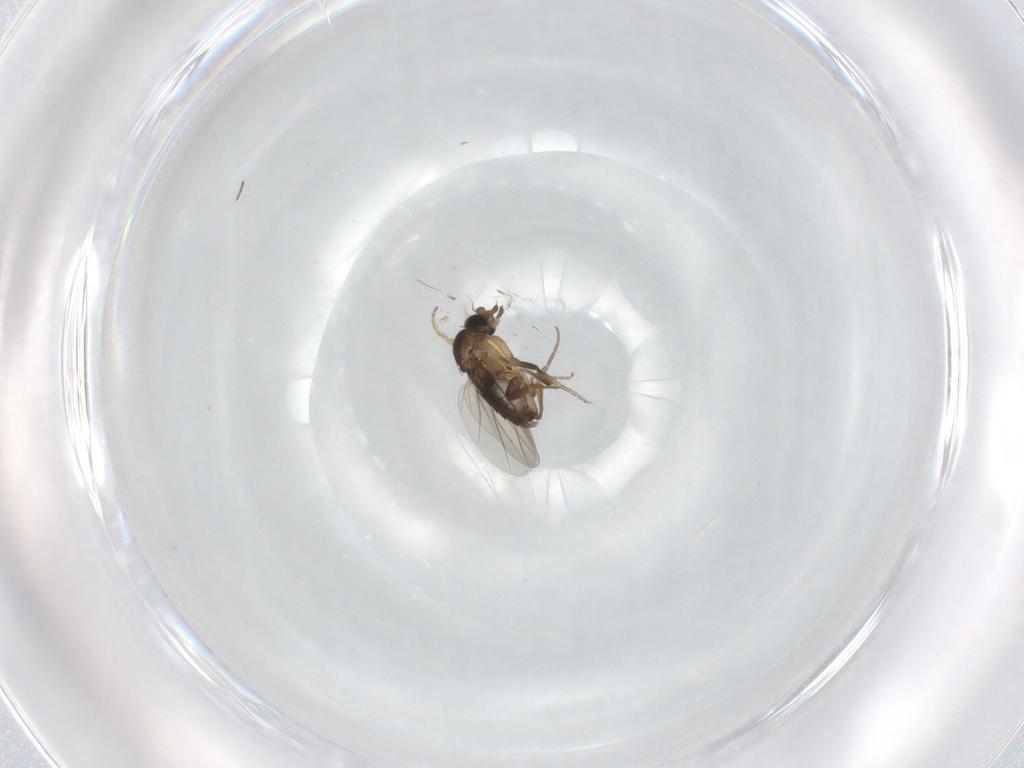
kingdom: Animalia
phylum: Arthropoda
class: Insecta
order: Diptera
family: Phoridae
